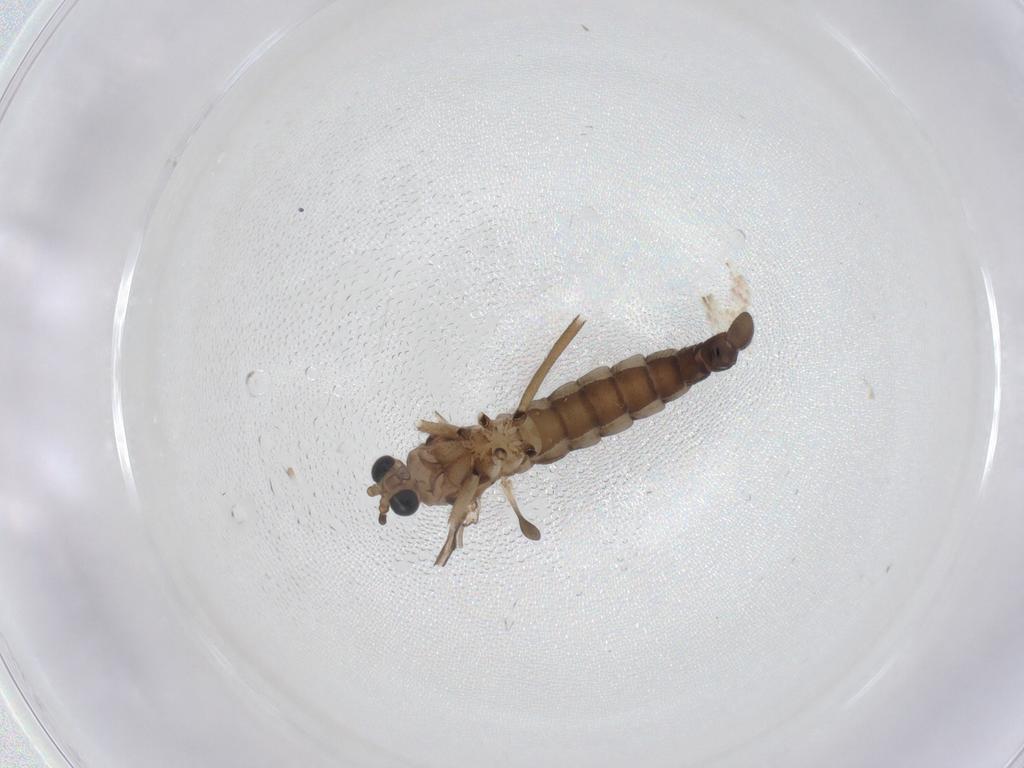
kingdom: Animalia
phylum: Arthropoda
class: Insecta
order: Diptera
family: Sciaridae
